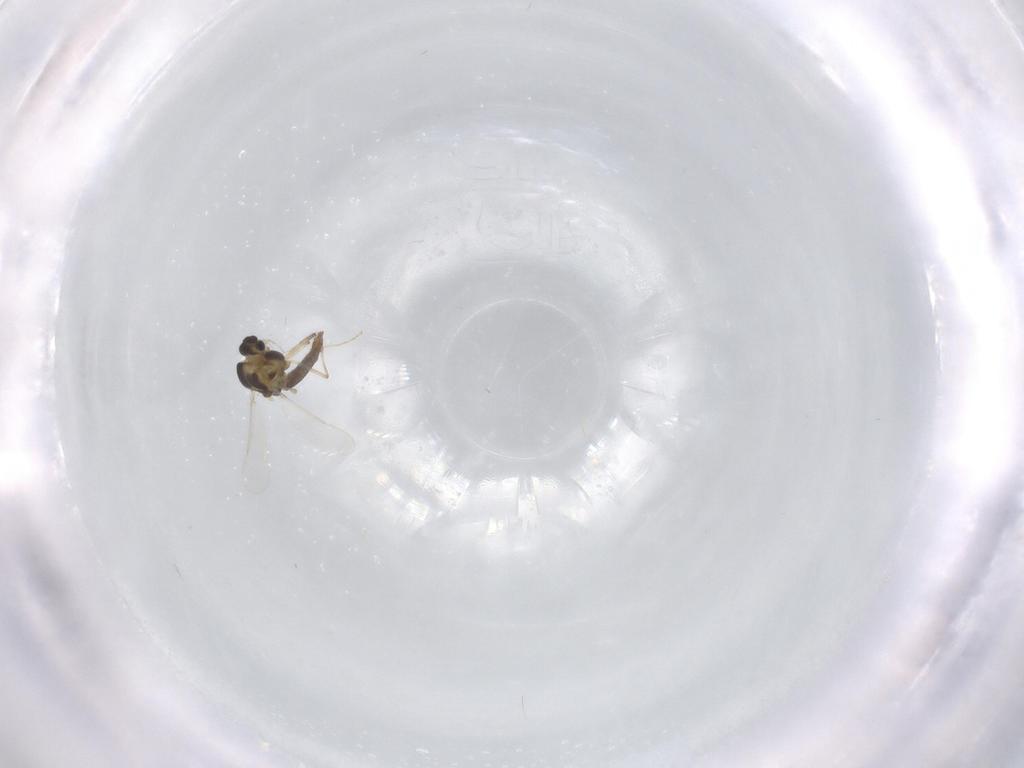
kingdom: Animalia
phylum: Arthropoda
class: Insecta
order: Diptera
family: Chironomidae
